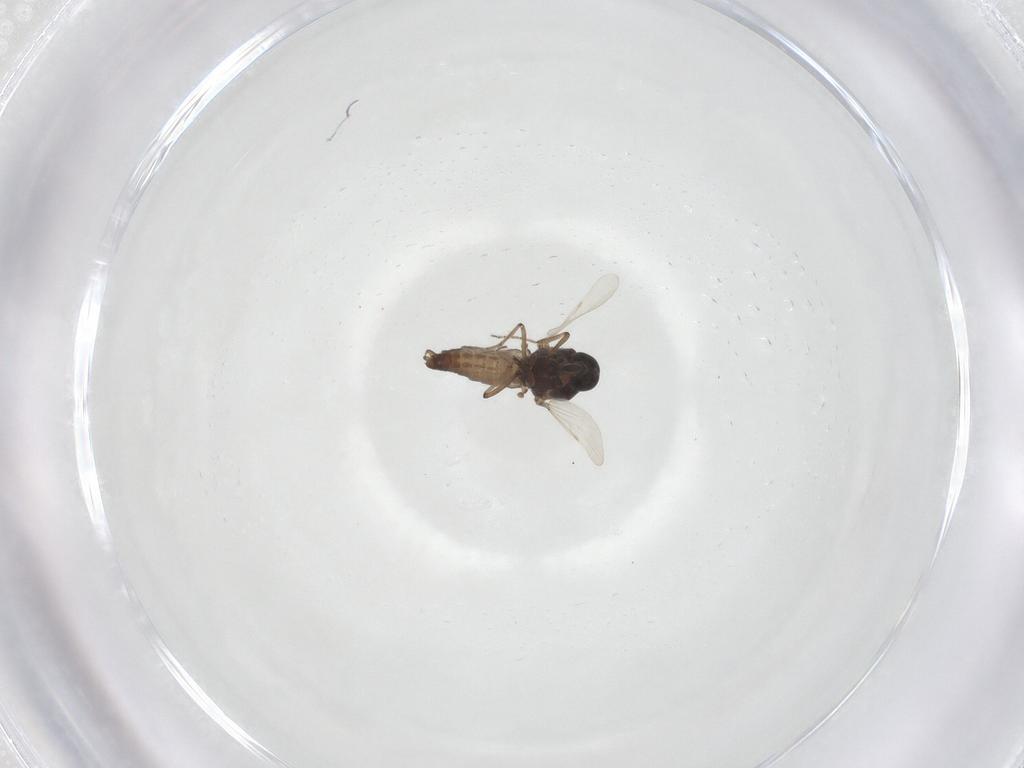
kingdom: Animalia
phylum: Arthropoda
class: Insecta
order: Diptera
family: Ceratopogonidae
